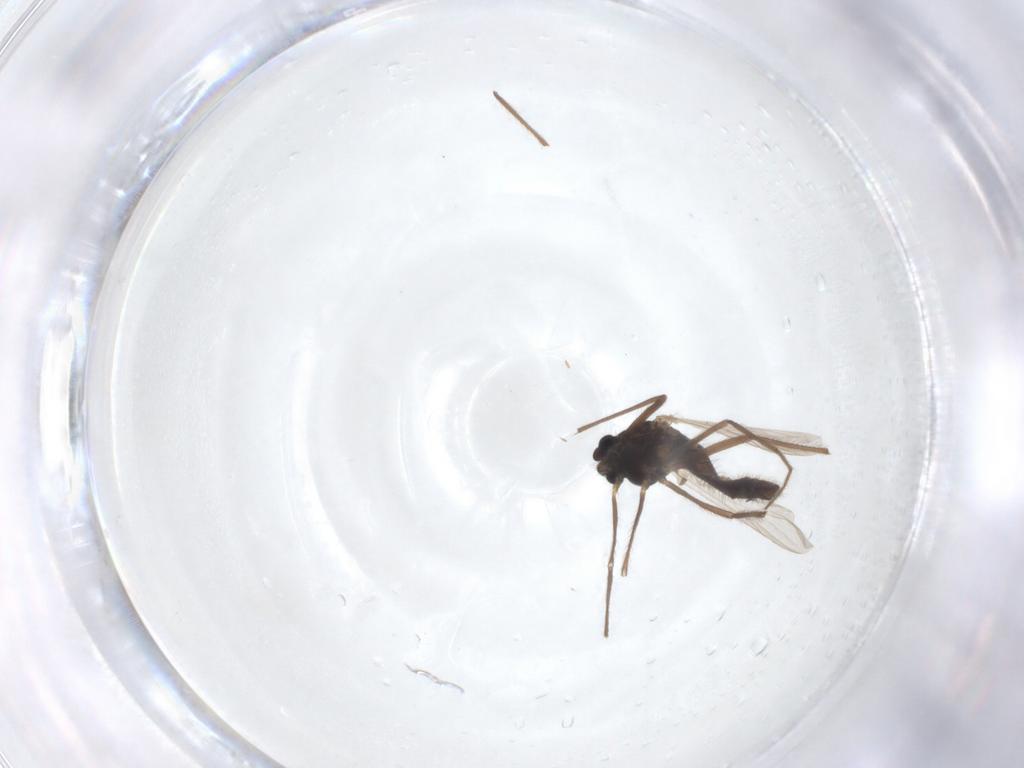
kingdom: Animalia
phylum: Arthropoda
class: Insecta
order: Diptera
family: Chironomidae
